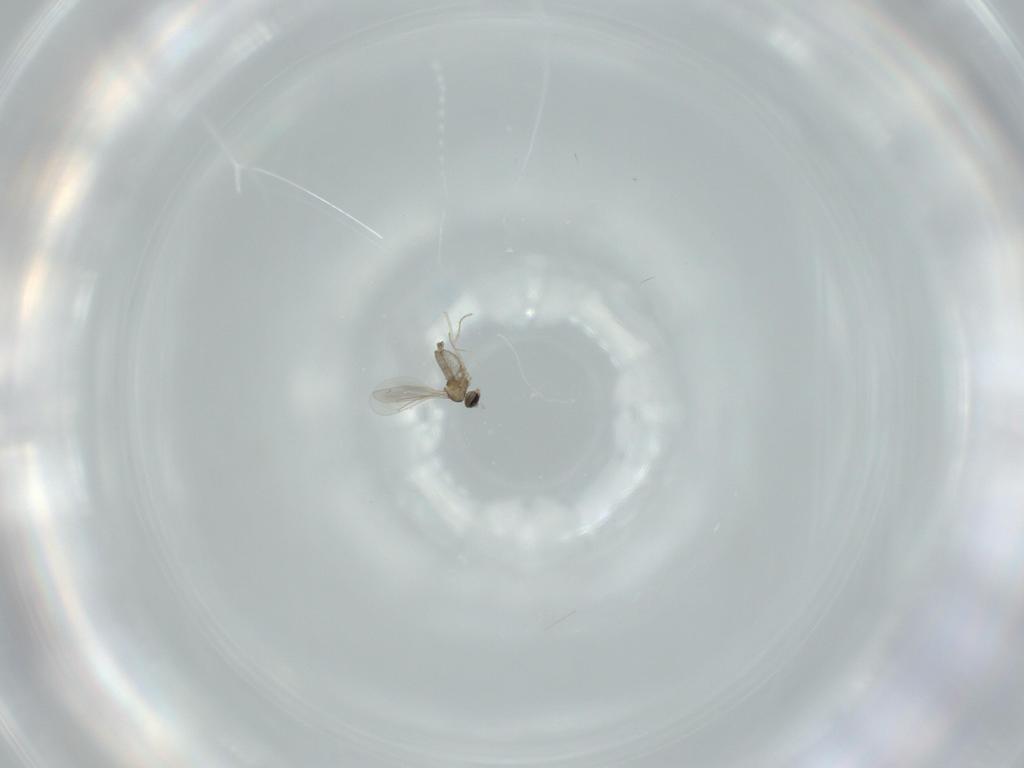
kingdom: Animalia
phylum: Arthropoda
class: Insecta
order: Diptera
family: Cecidomyiidae
